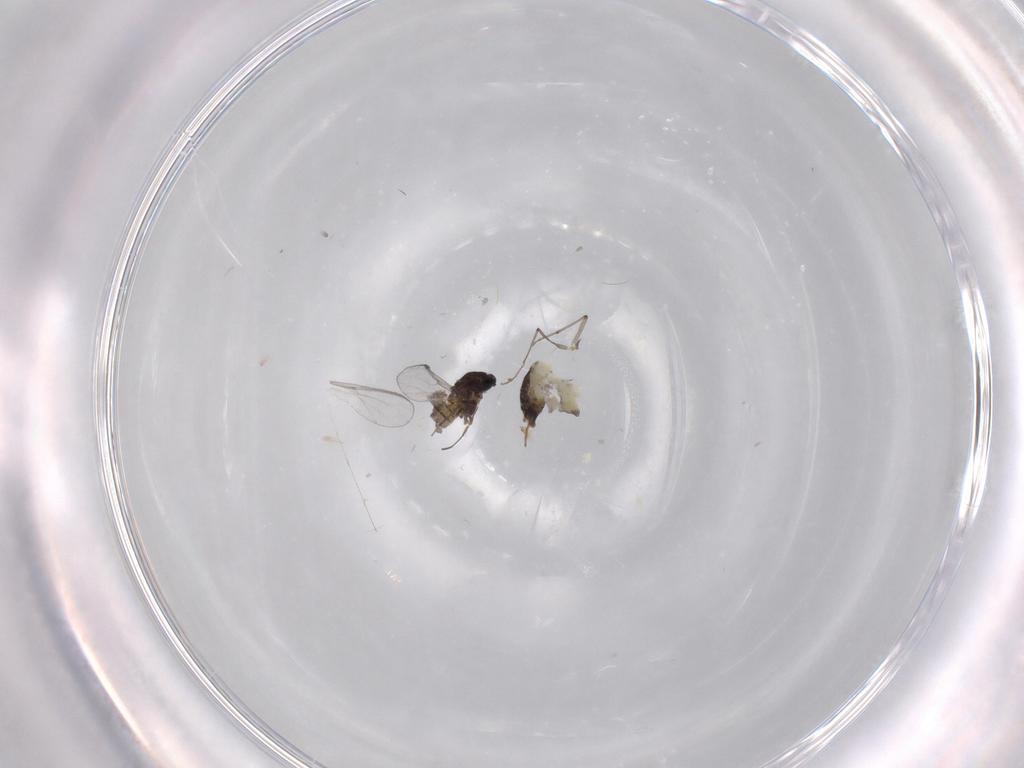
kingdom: Animalia
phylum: Arthropoda
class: Insecta
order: Diptera
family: Chironomidae
